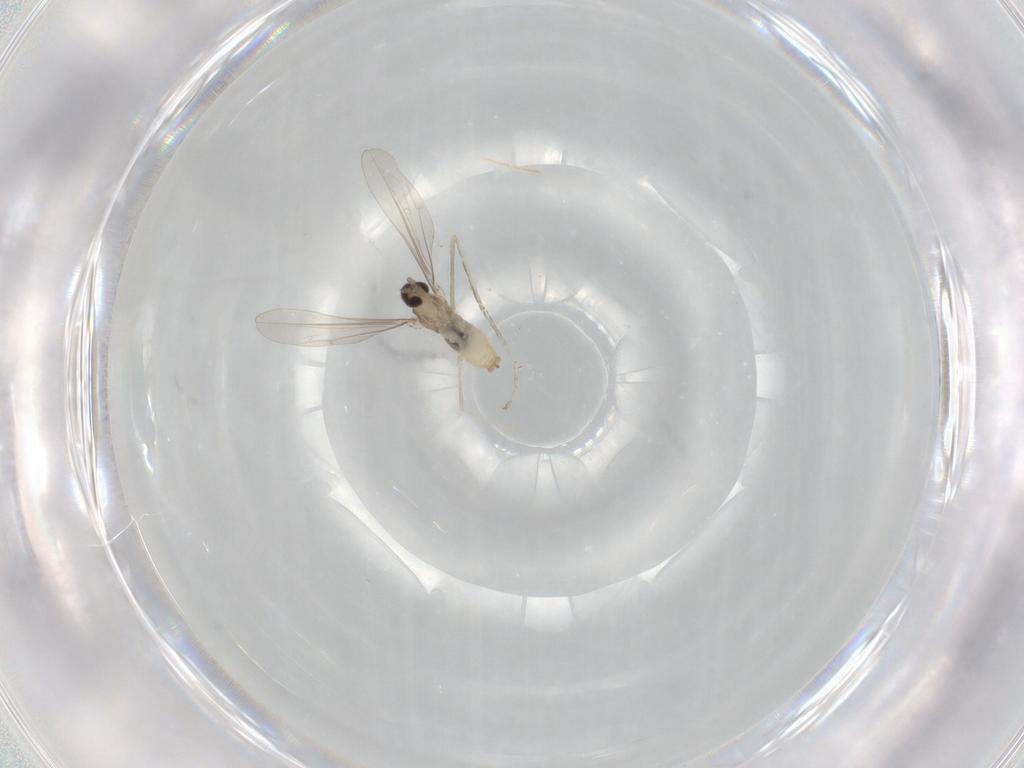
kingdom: Animalia
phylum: Arthropoda
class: Insecta
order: Diptera
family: Cecidomyiidae
